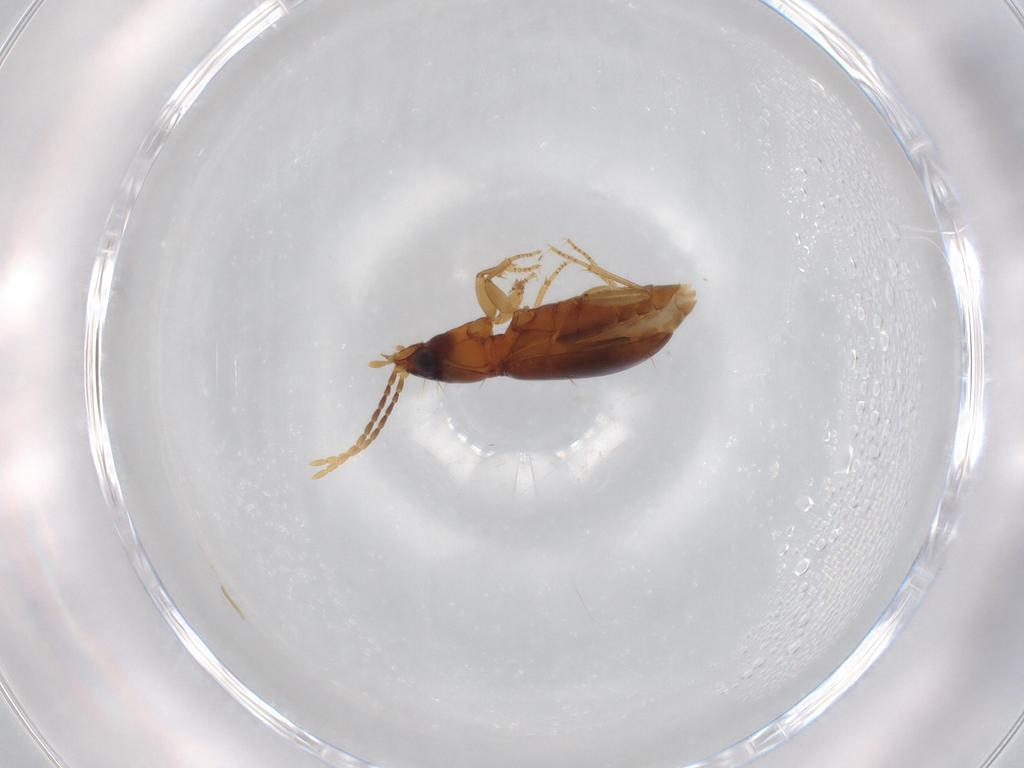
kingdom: Animalia
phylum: Arthropoda
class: Insecta
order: Coleoptera
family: Carabidae
